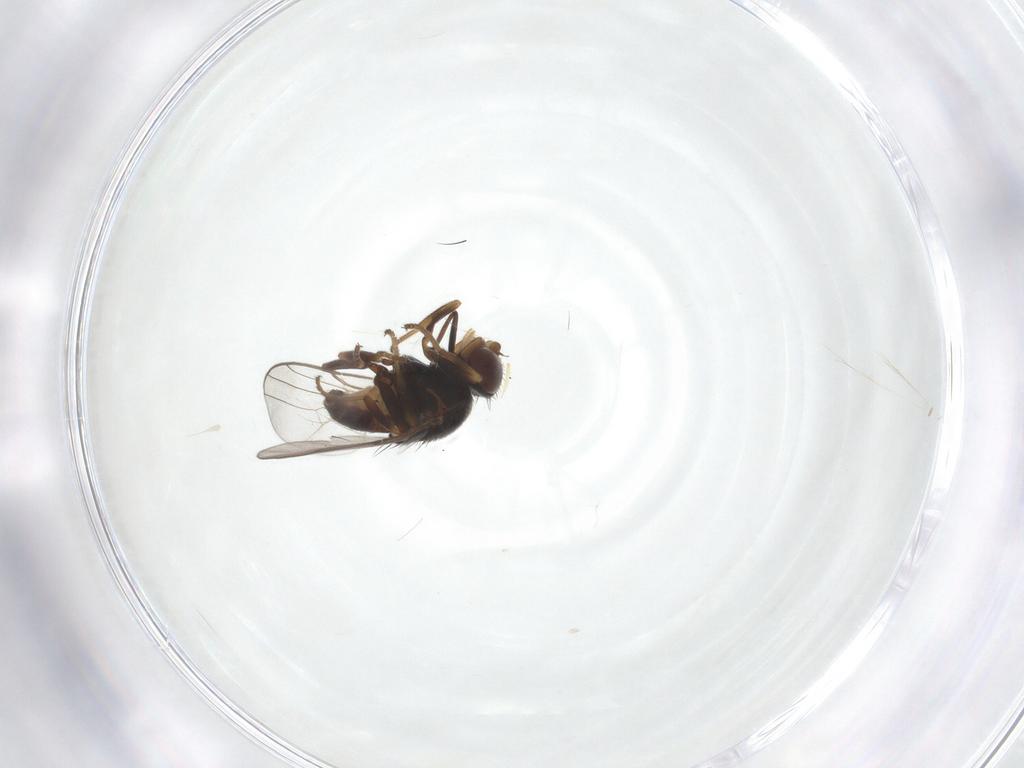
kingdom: Animalia
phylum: Arthropoda
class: Insecta
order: Diptera
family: Chloropidae
